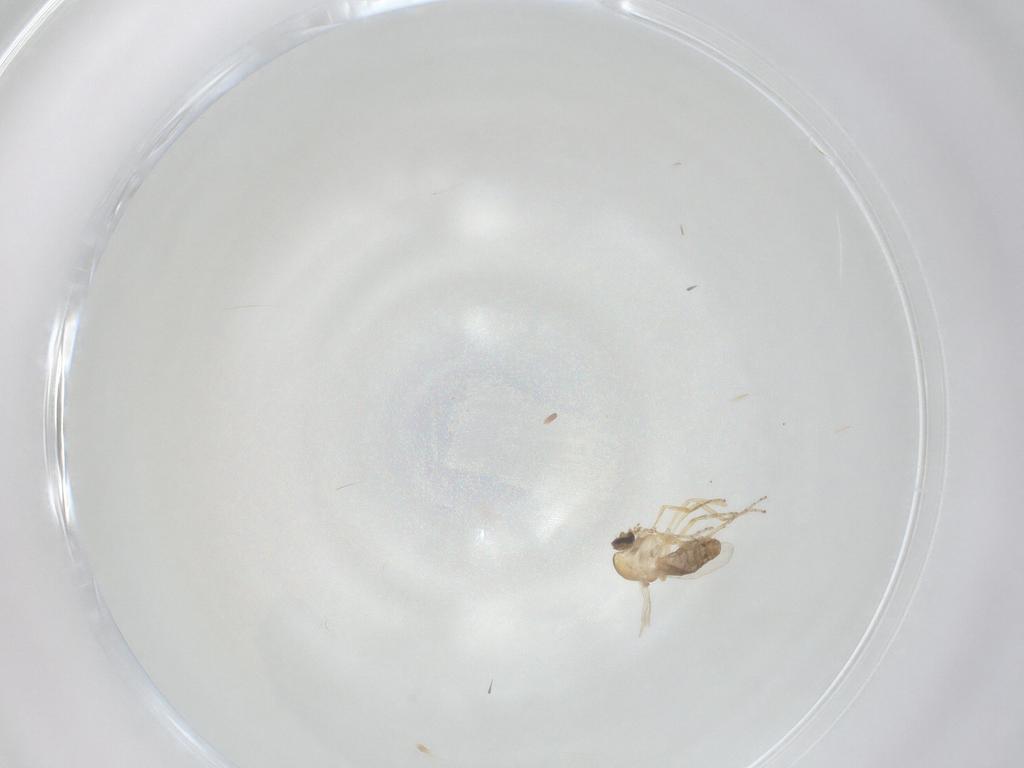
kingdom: Animalia
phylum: Arthropoda
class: Insecta
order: Diptera
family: Ceratopogonidae
